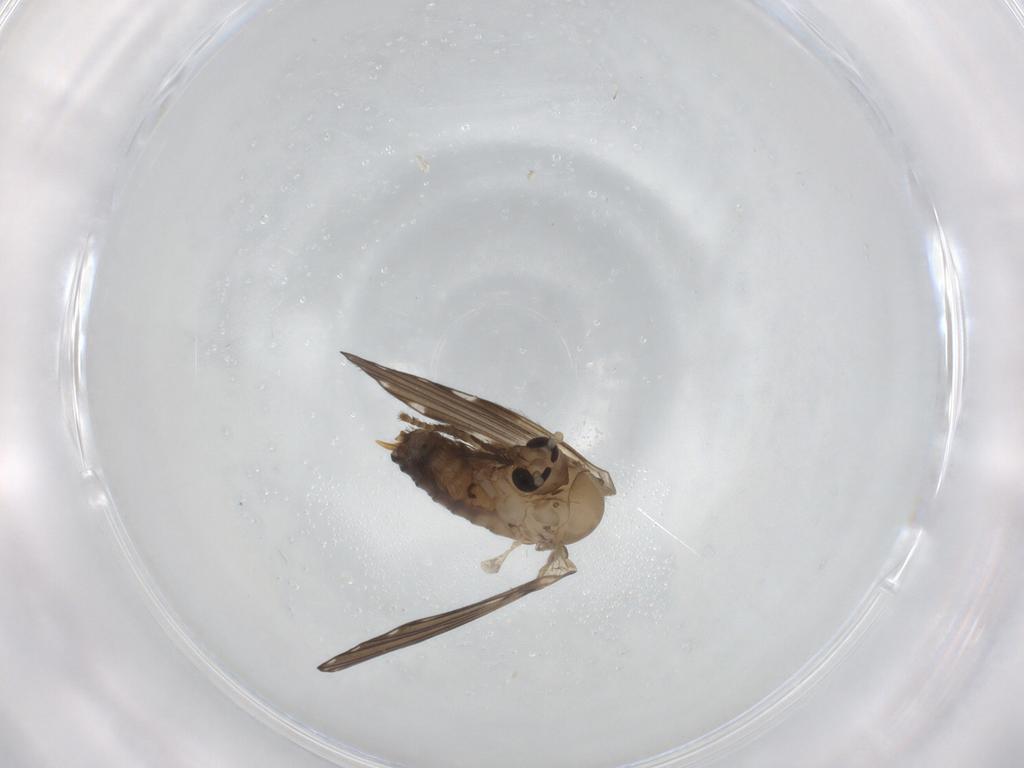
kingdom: Animalia
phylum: Arthropoda
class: Insecta
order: Diptera
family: Psychodidae
